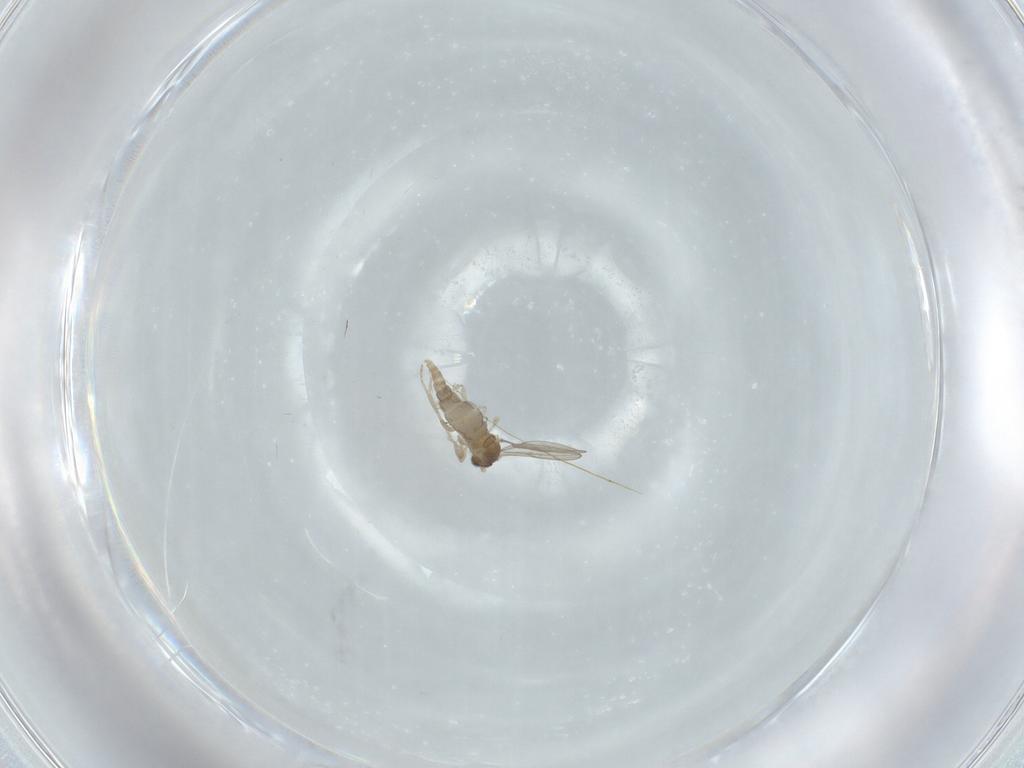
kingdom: Animalia
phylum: Arthropoda
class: Insecta
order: Diptera
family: Cecidomyiidae
